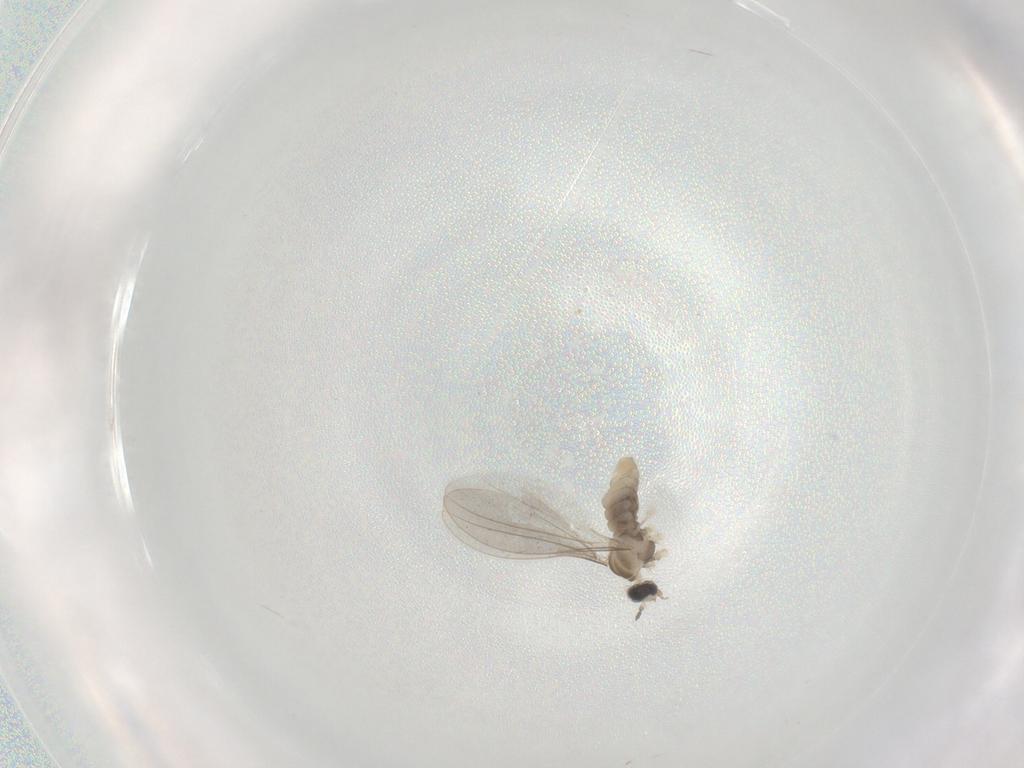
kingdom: Animalia
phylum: Arthropoda
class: Insecta
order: Diptera
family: Cecidomyiidae
